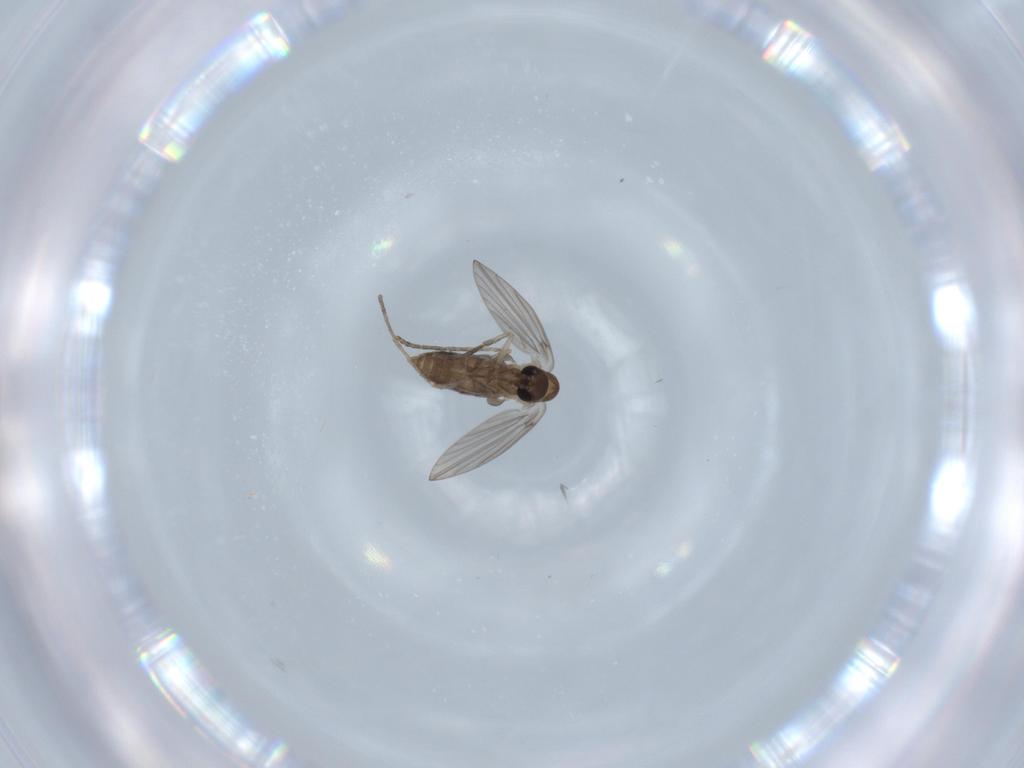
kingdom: Animalia
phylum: Arthropoda
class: Insecta
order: Diptera
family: Cecidomyiidae
